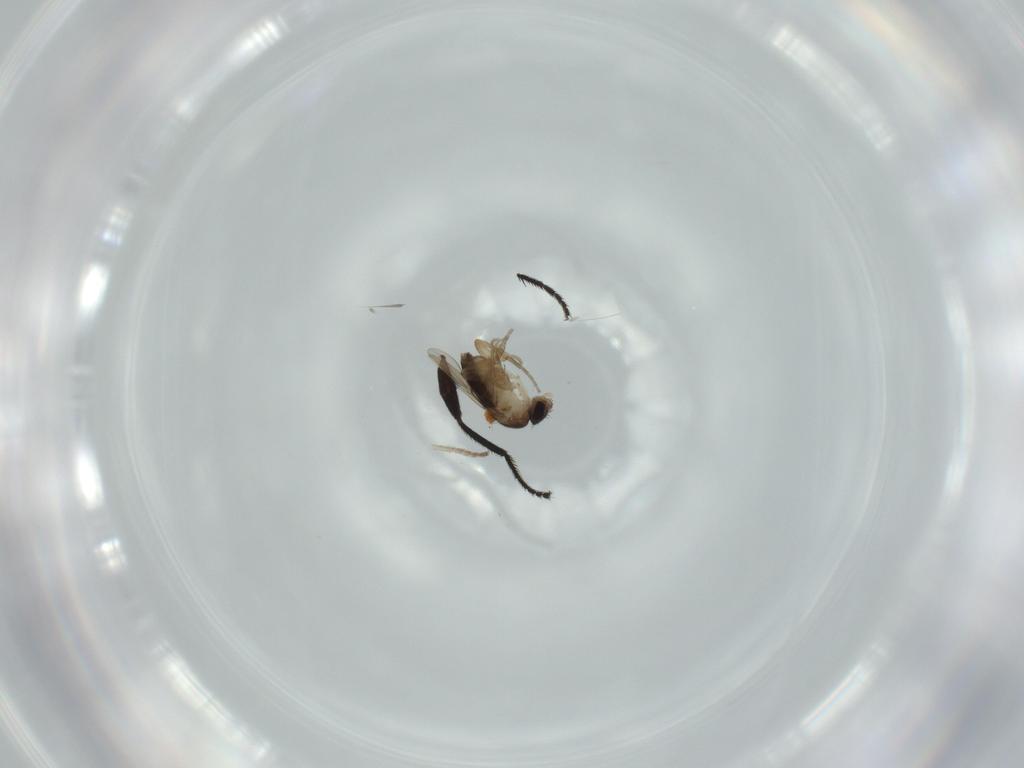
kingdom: Animalia
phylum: Arthropoda
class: Insecta
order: Diptera
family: Psychodidae
